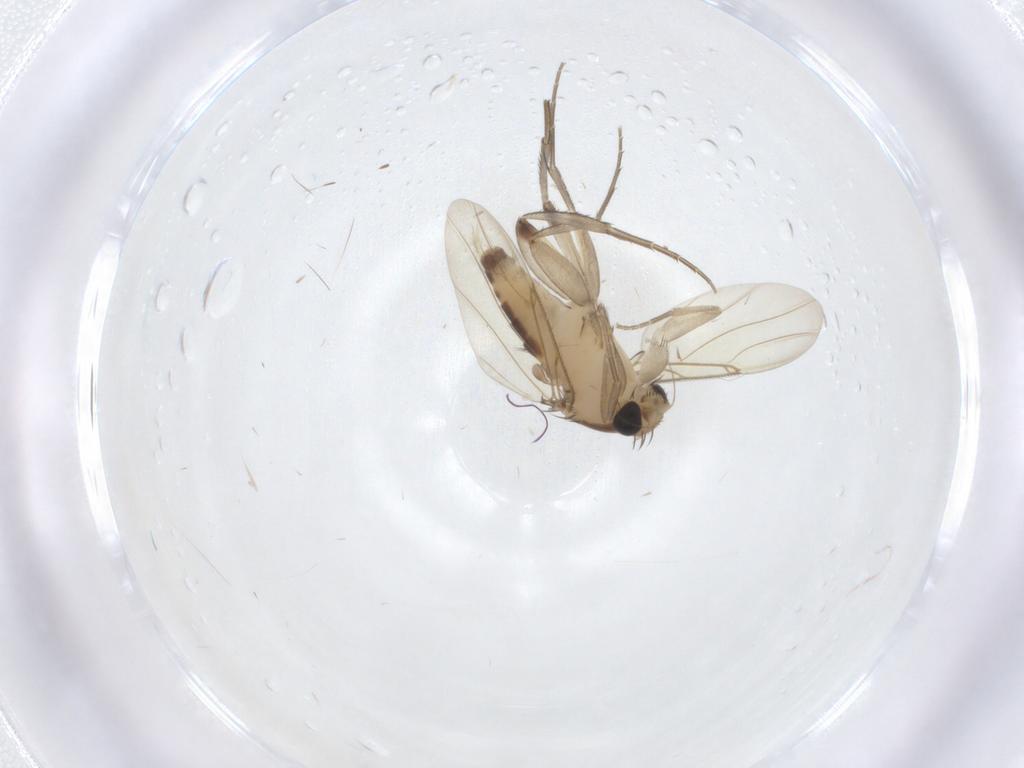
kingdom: Animalia
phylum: Arthropoda
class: Insecta
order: Diptera
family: Phoridae
